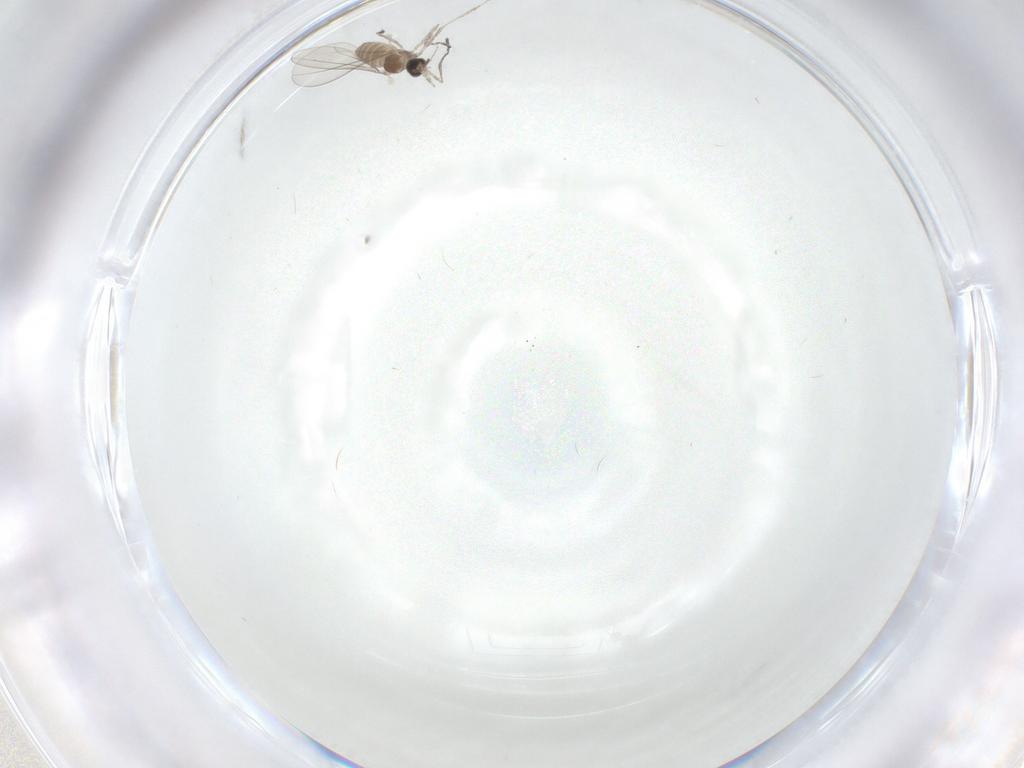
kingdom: Animalia
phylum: Arthropoda
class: Insecta
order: Diptera
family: Cecidomyiidae
